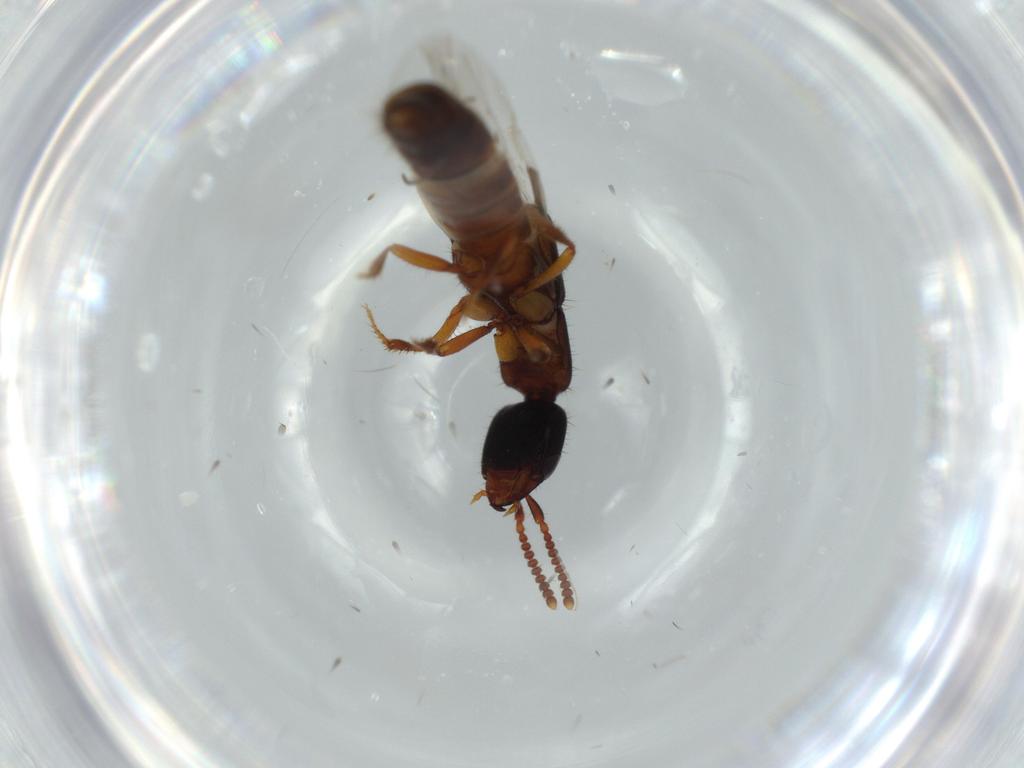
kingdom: Animalia
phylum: Arthropoda
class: Insecta
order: Coleoptera
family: Staphylinidae
